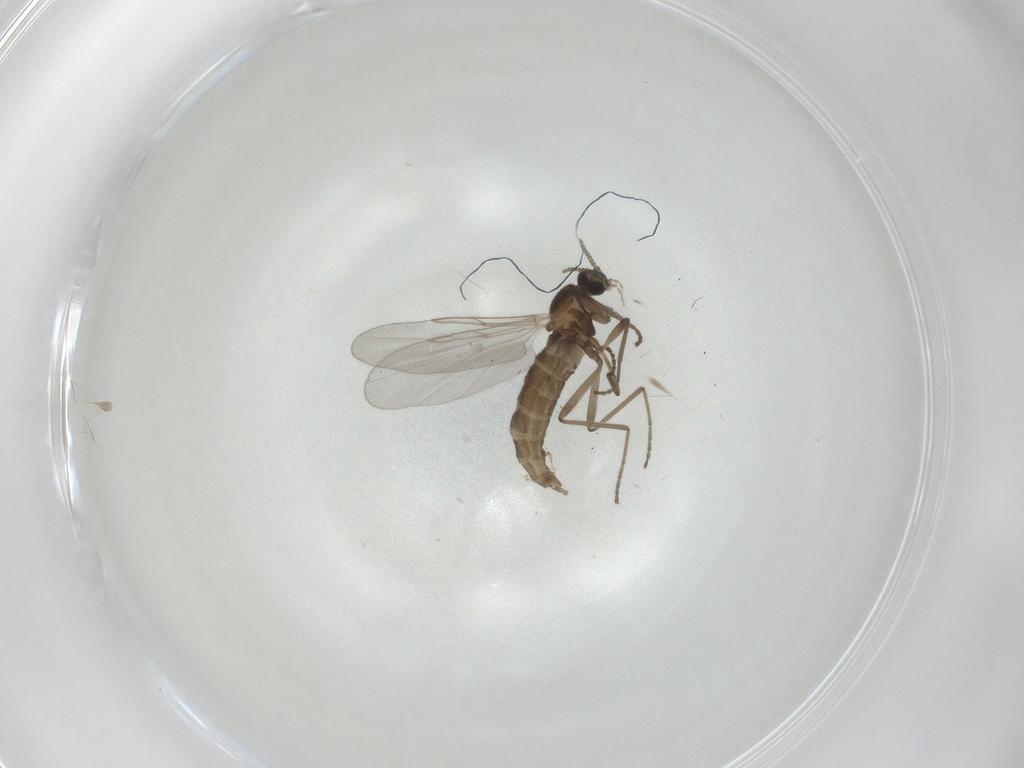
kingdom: Animalia
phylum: Arthropoda
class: Insecta
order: Diptera
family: Cecidomyiidae
